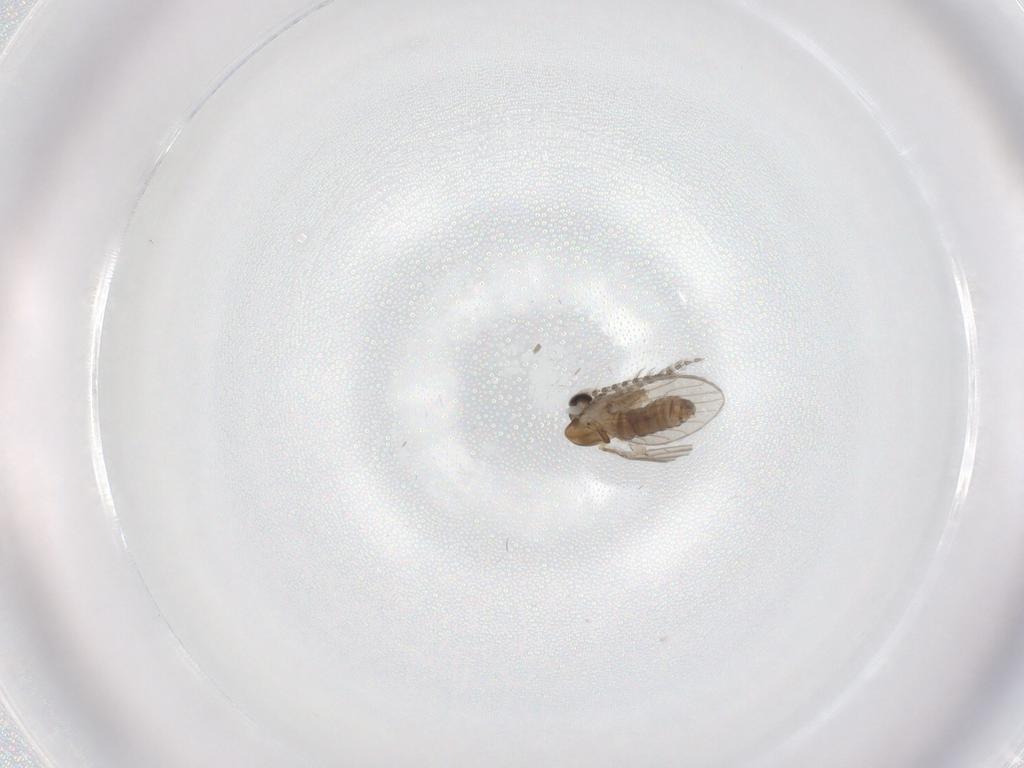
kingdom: Animalia
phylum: Arthropoda
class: Insecta
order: Diptera
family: Psychodidae
